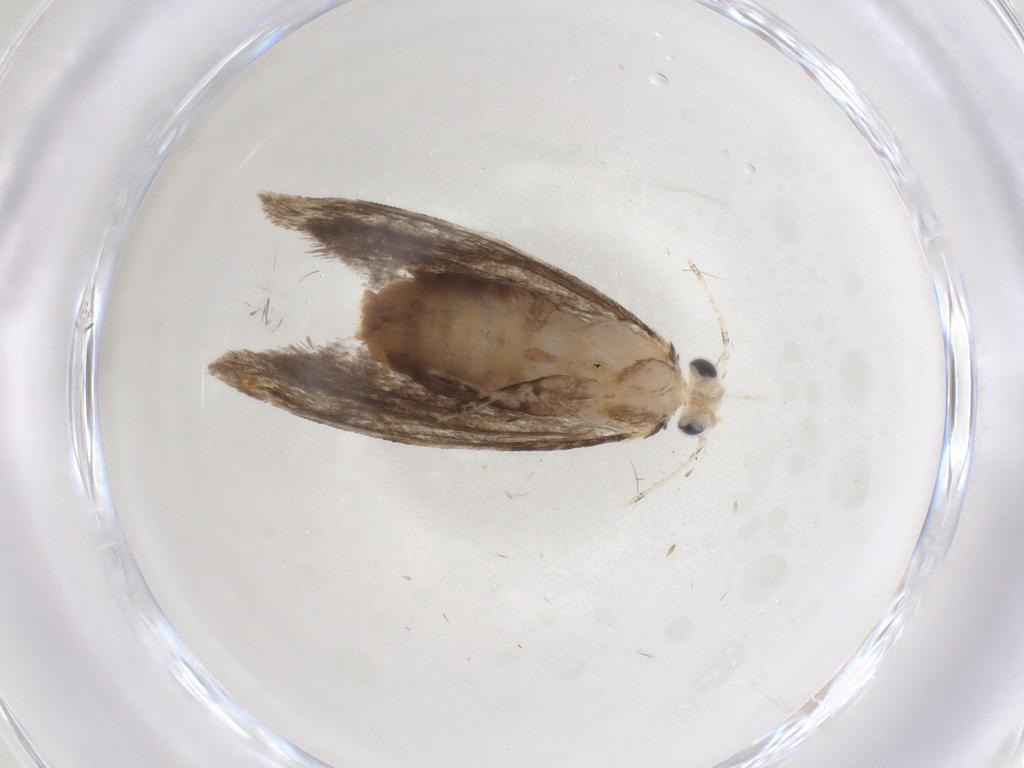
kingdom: Animalia
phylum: Arthropoda
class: Insecta
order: Lepidoptera
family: Tineidae
